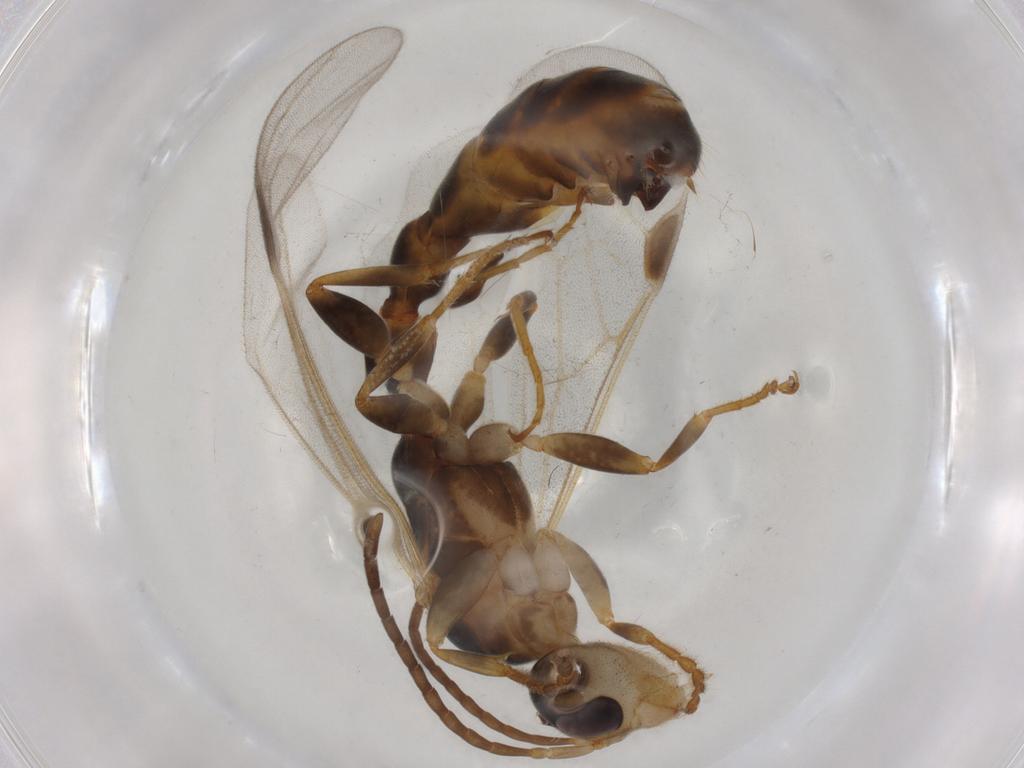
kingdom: Animalia
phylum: Arthropoda
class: Insecta
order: Hymenoptera
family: Formicidae
